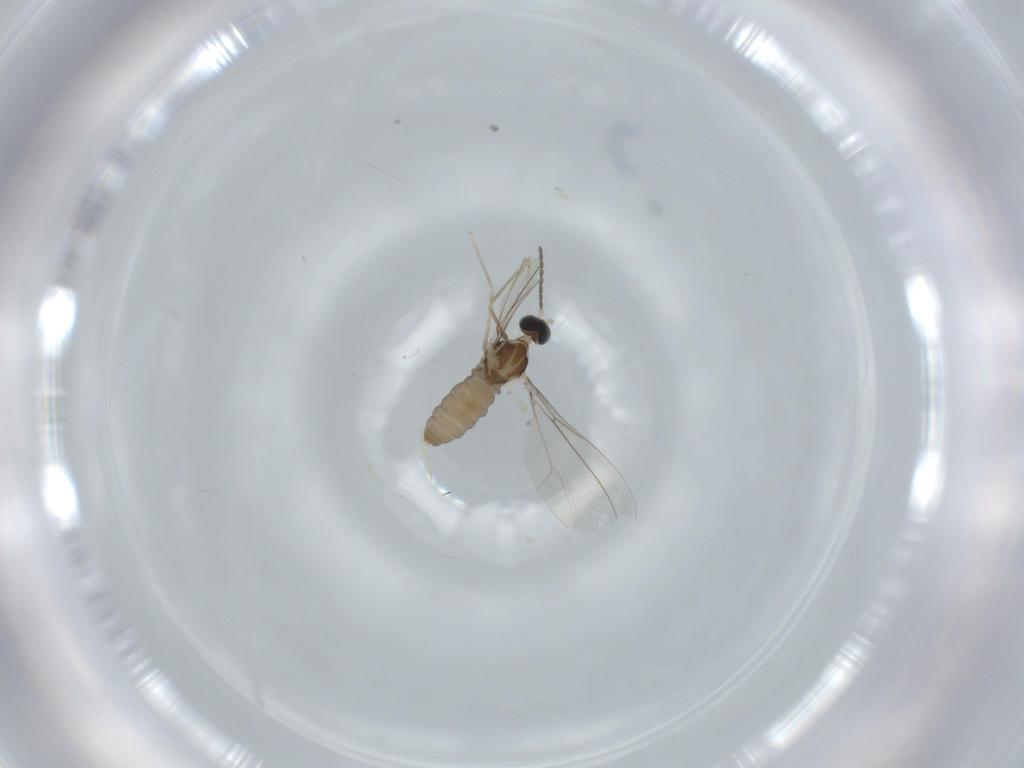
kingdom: Animalia
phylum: Arthropoda
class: Insecta
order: Diptera
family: Cecidomyiidae
